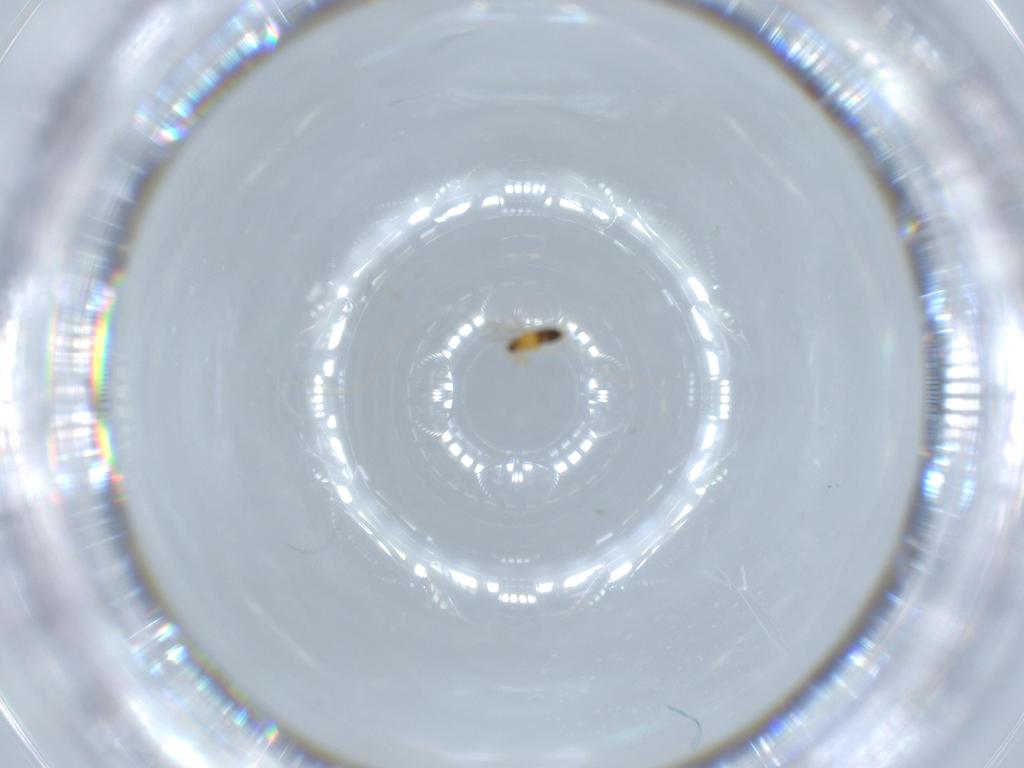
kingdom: Animalia
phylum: Arthropoda
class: Insecta
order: Hymenoptera
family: Aphelinidae
